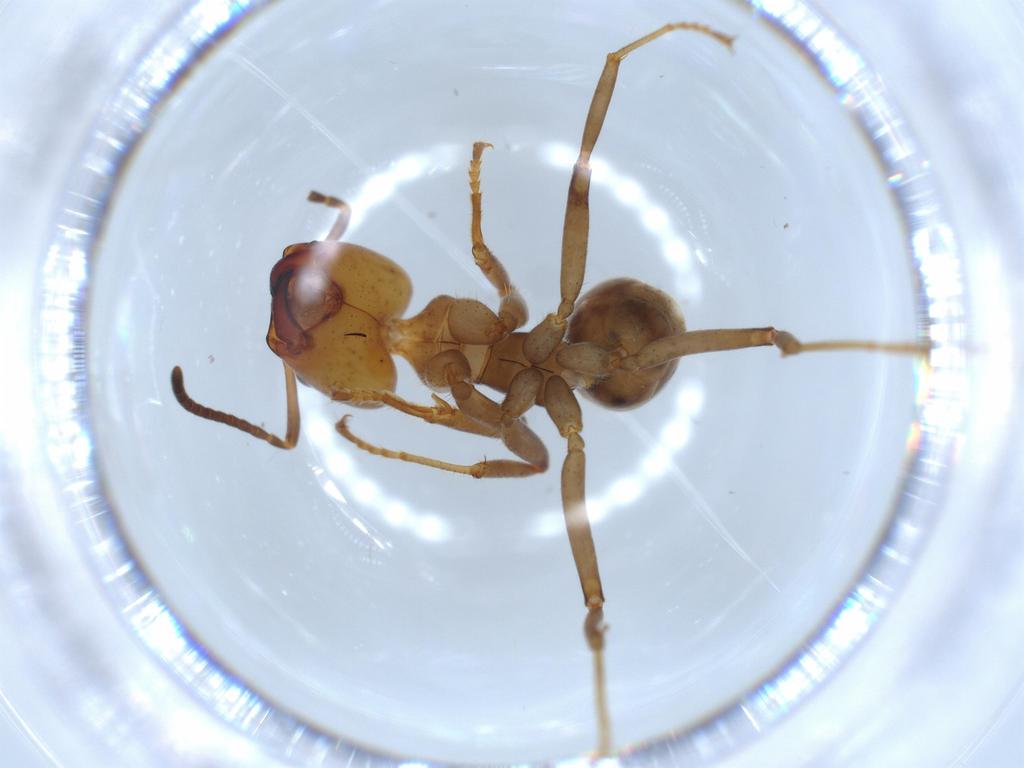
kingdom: Animalia
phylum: Arthropoda
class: Insecta
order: Hymenoptera
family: Formicidae
